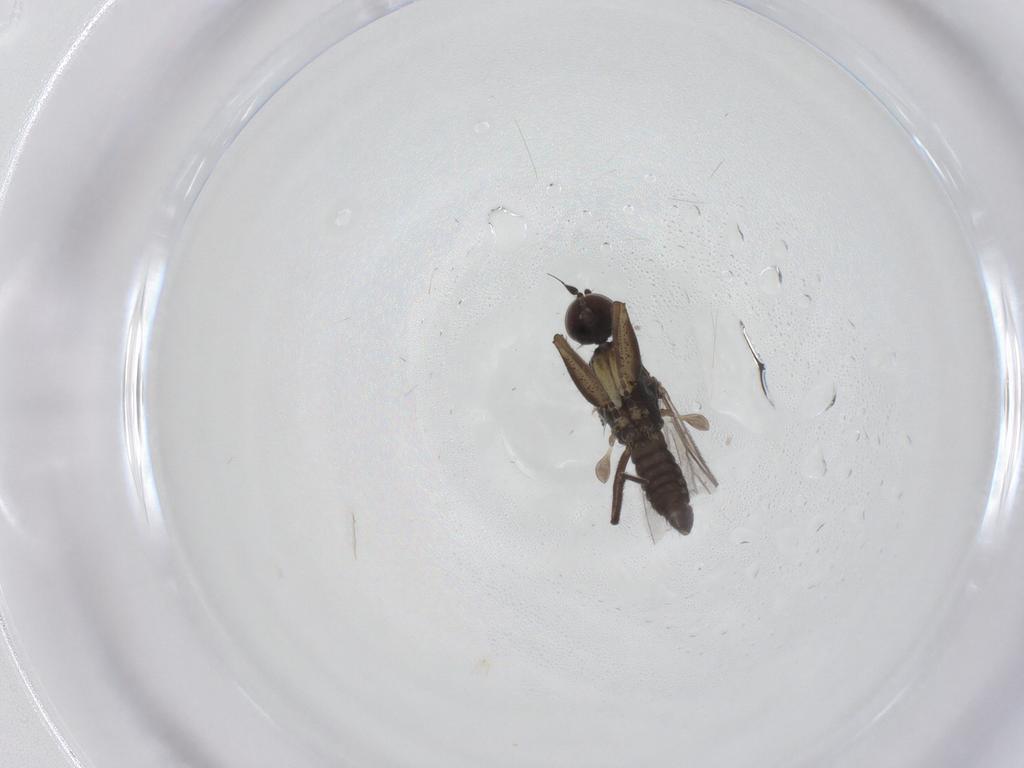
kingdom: Animalia
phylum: Arthropoda
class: Insecta
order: Diptera
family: Empididae
